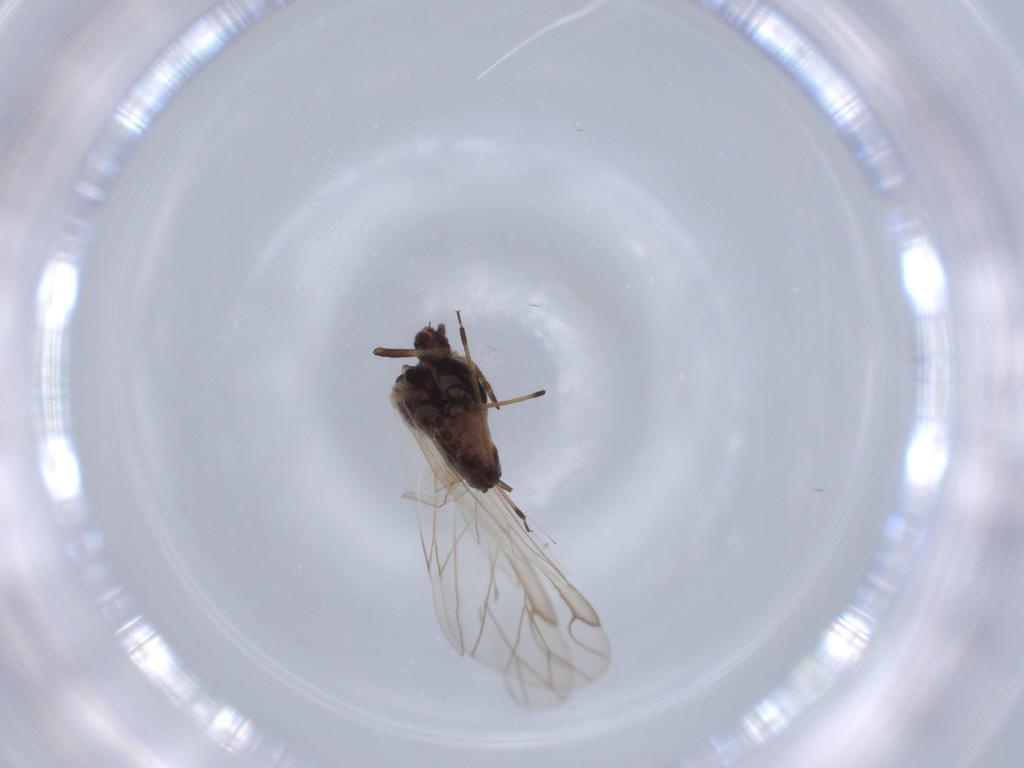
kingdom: Animalia
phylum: Arthropoda
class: Insecta
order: Hemiptera
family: Aphididae
